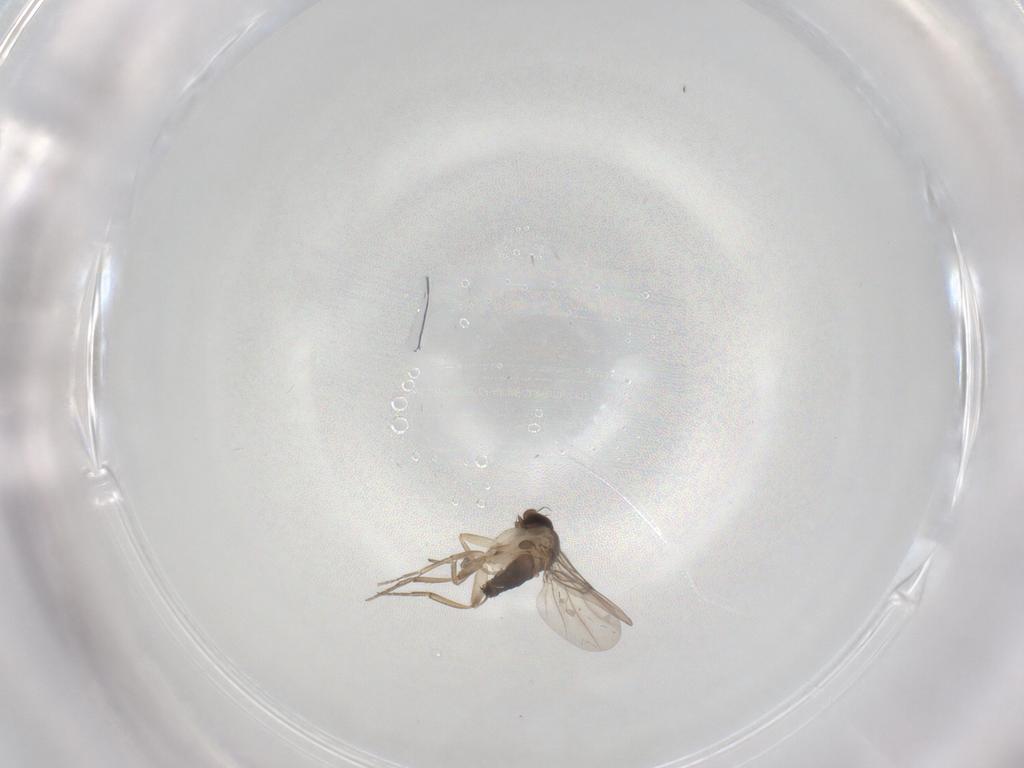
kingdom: Animalia
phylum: Arthropoda
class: Insecta
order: Diptera
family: Phoridae
